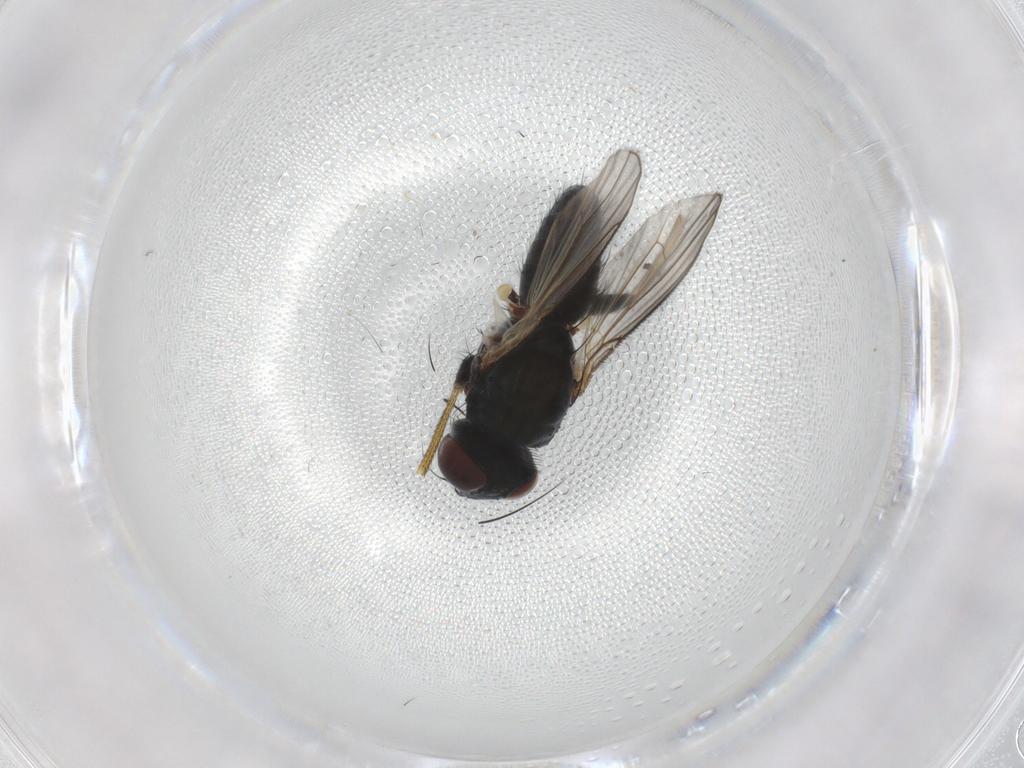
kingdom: Animalia
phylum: Arthropoda
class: Insecta
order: Diptera
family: Muscidae
